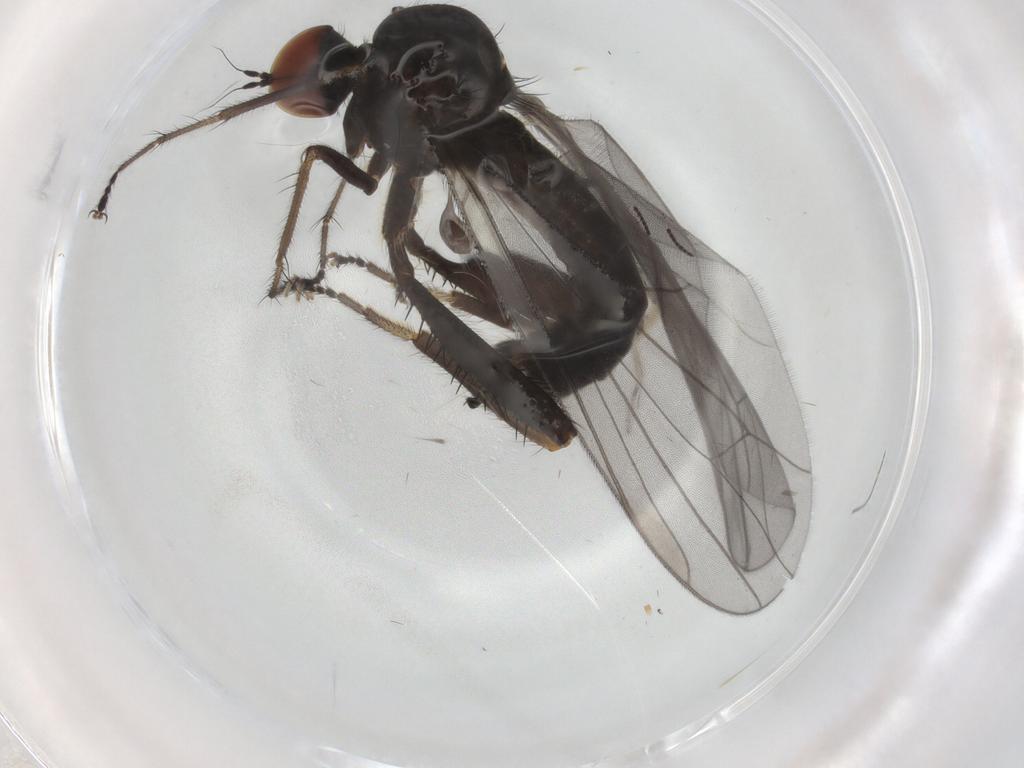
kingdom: Animalia
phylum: Arthropoda
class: Insecta
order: Diptera
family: Hybotidae
